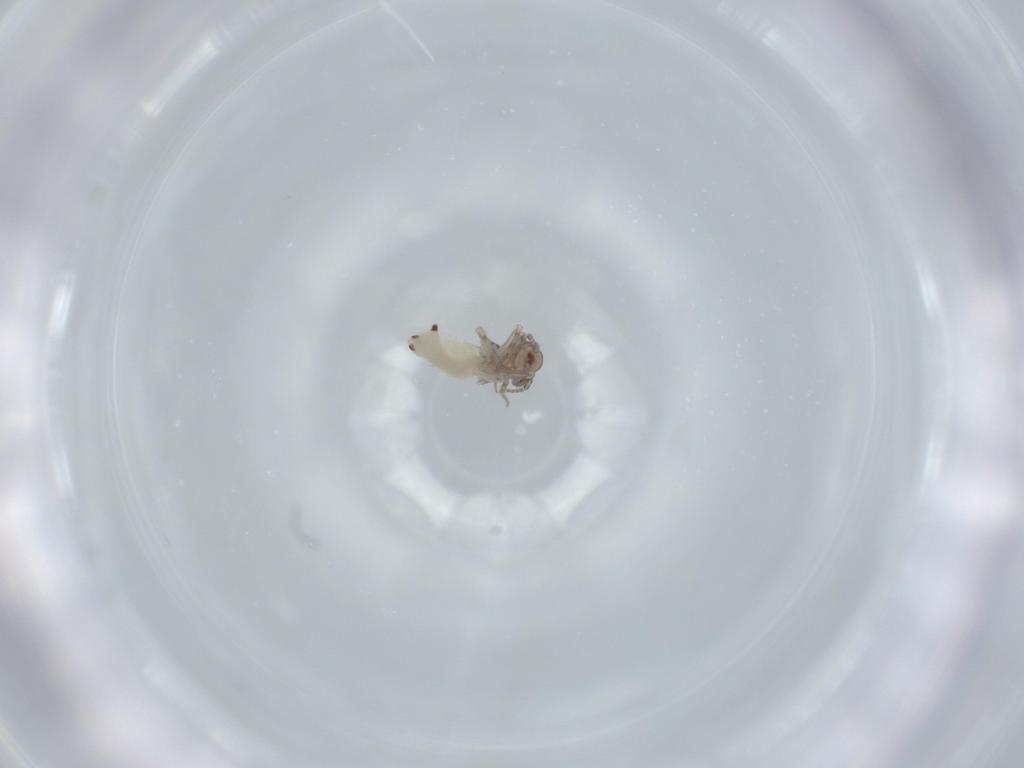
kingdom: Animalia
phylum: Arthropoda
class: Insecta
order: Psocodea
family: Lepidopsocidae
